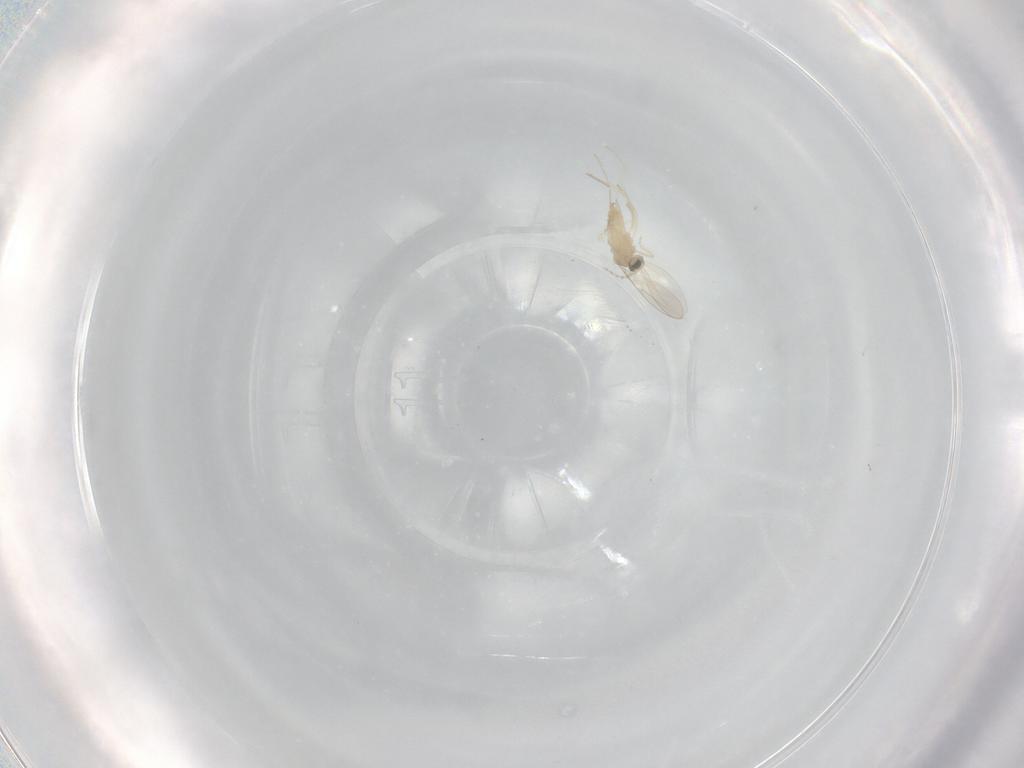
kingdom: Animalia
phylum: Arthropoda
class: Insecta
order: Diptera
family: Cecidomyiidae
